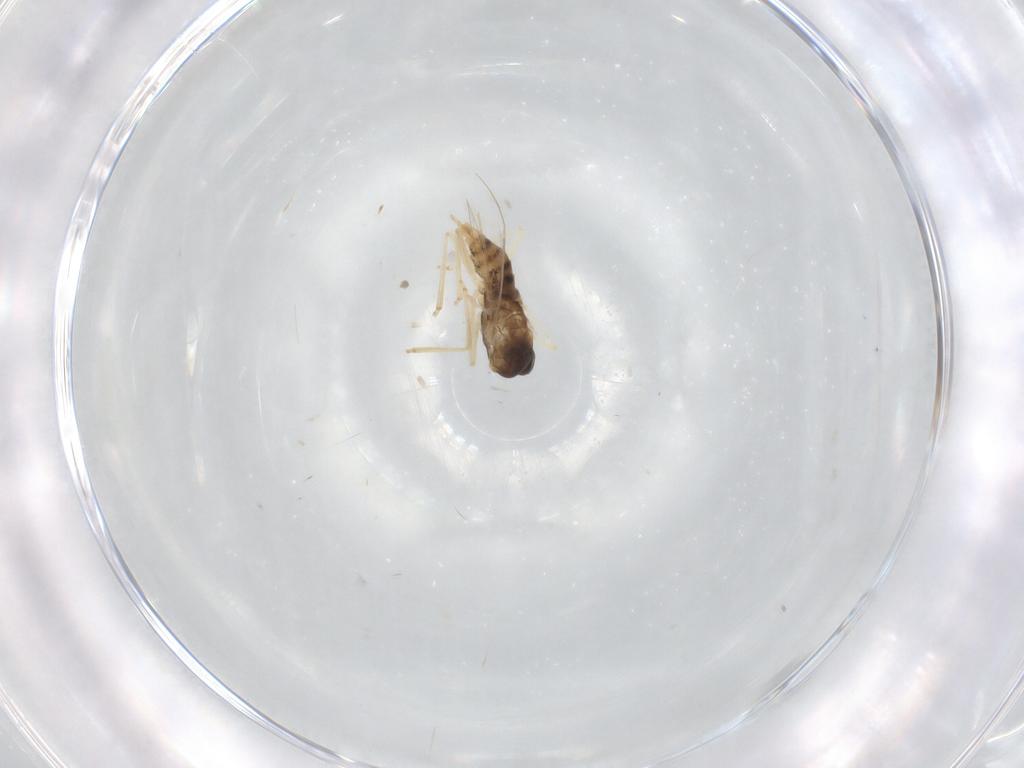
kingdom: Animalia
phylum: Arthropoda
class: Insecta
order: Diptera
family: Cecidomyiidae
